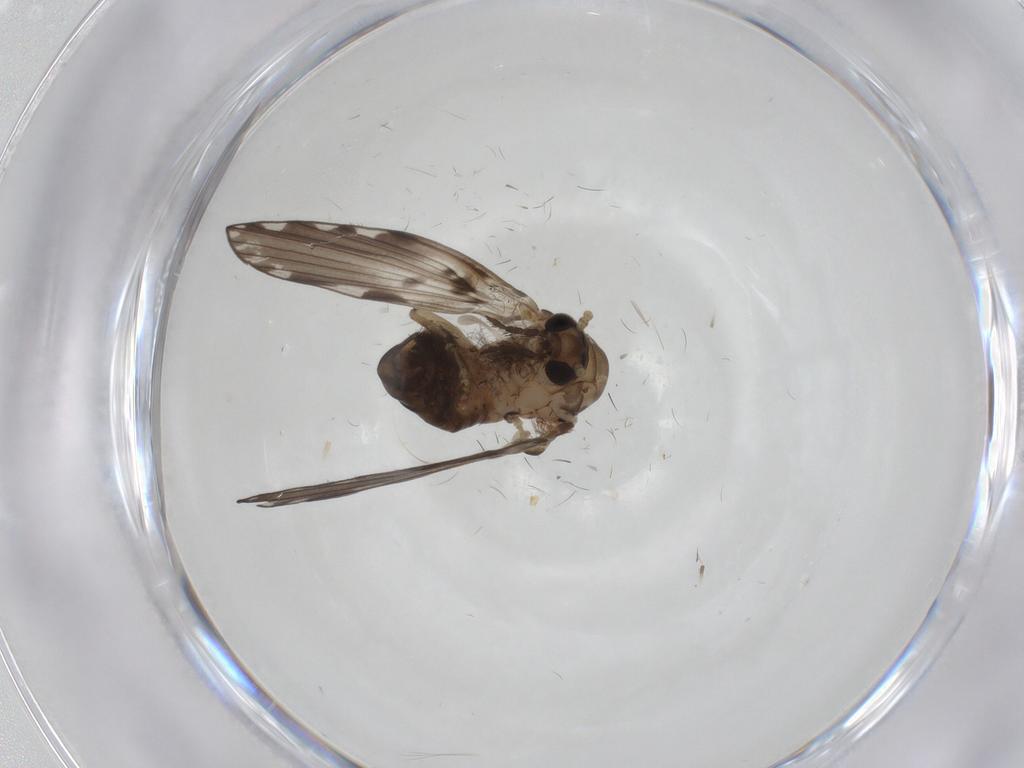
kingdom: Animalia
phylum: Arthropoda
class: Insecta
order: Diptera
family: Psychodidae
